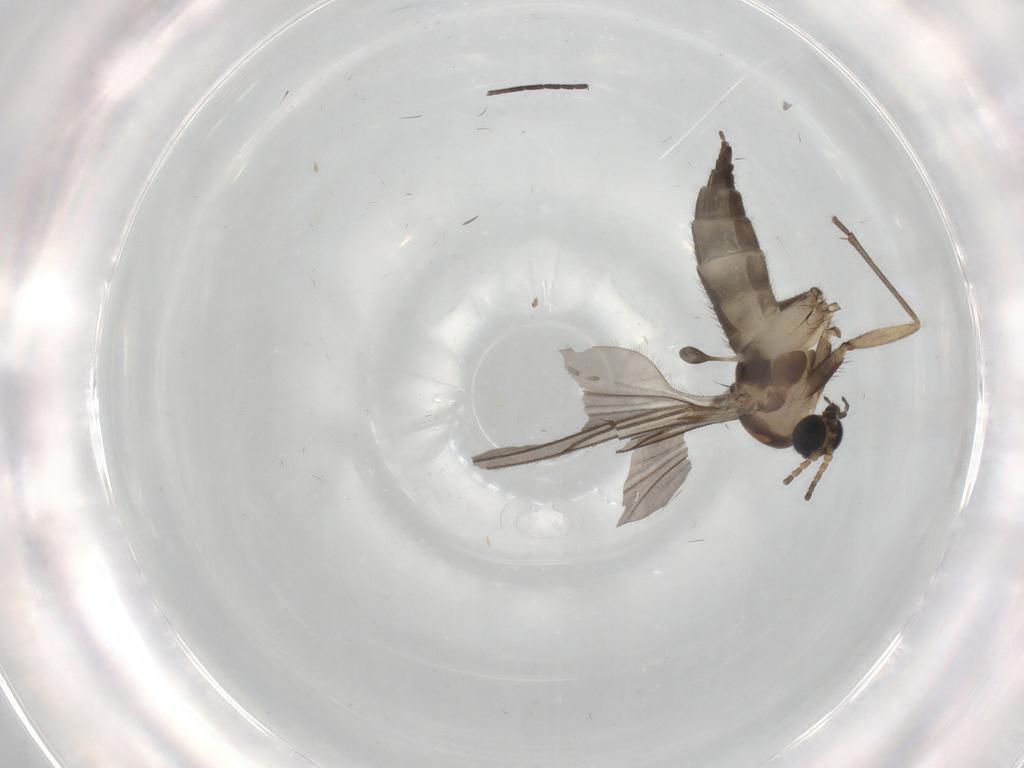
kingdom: Animalia
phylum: Arthropoda
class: Insecta
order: Diptera
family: Sciaridae
